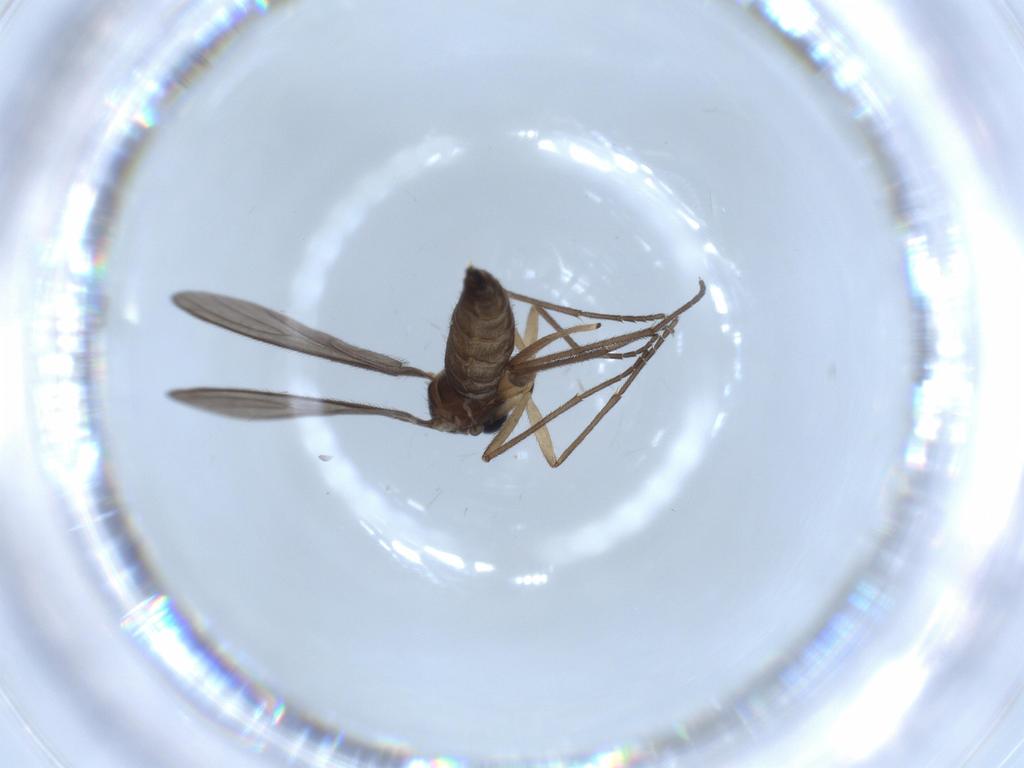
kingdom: Animalia
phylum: Arthropoda
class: Insecta
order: Diptera
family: Sciaridae
